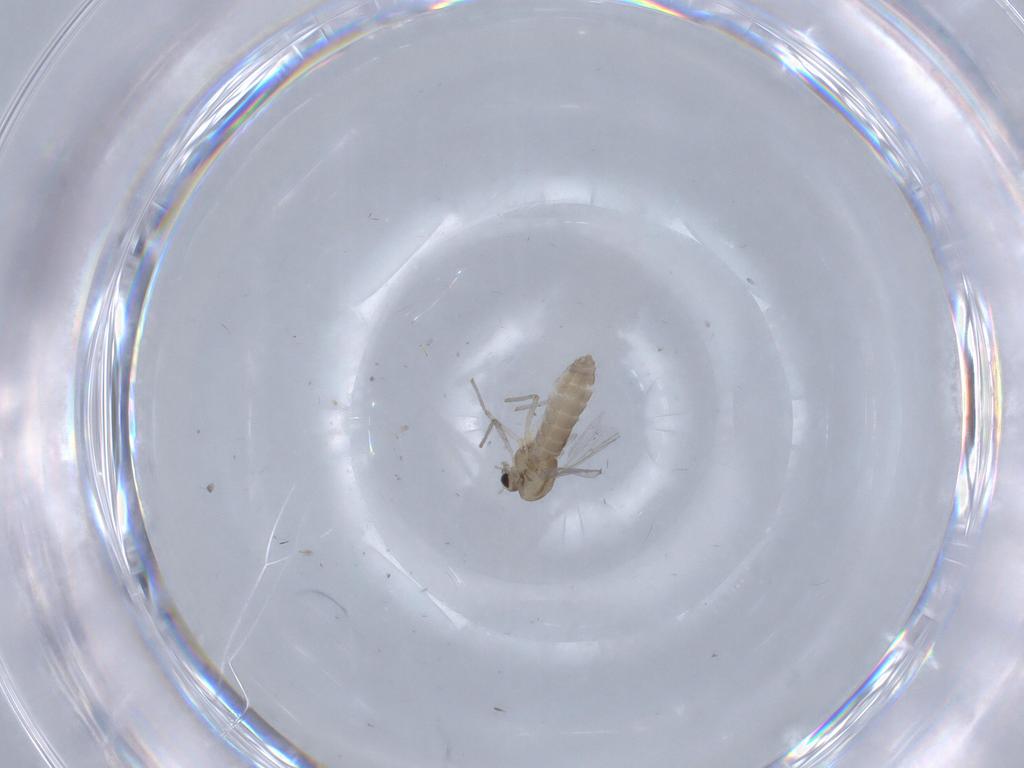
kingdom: Animalia
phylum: Arthropoda
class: Insecta
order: Diptera
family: Chironomidae
